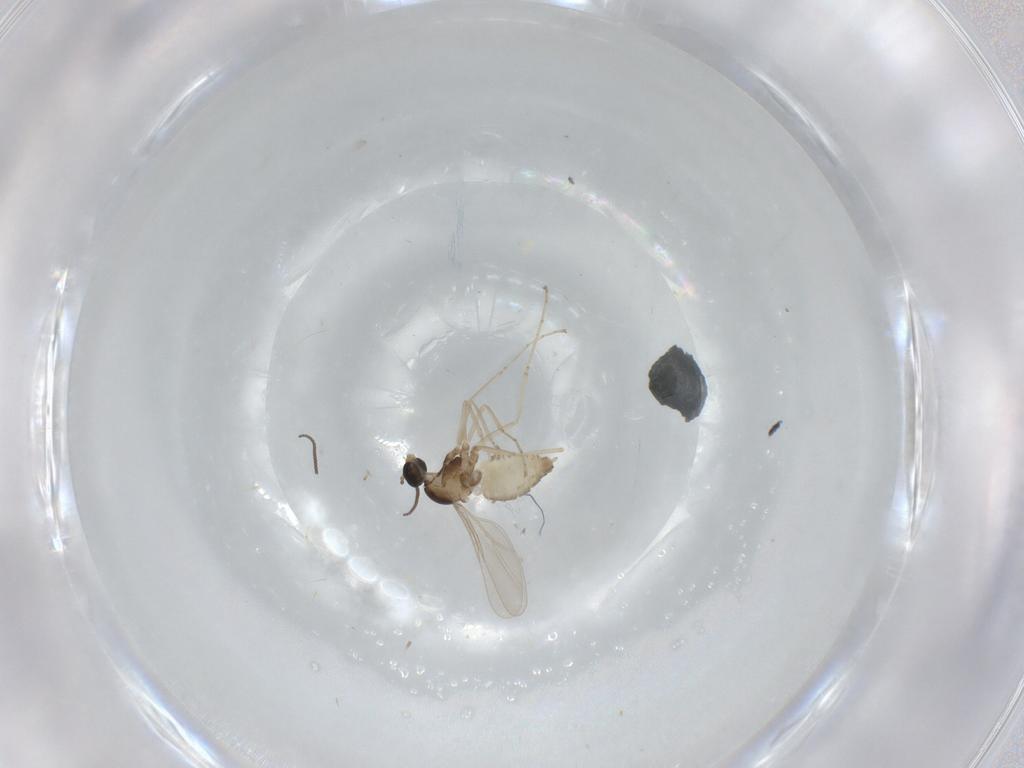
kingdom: Animalia
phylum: Arthropoda
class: Insecta
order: Diptera
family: Cecidomyiidae
